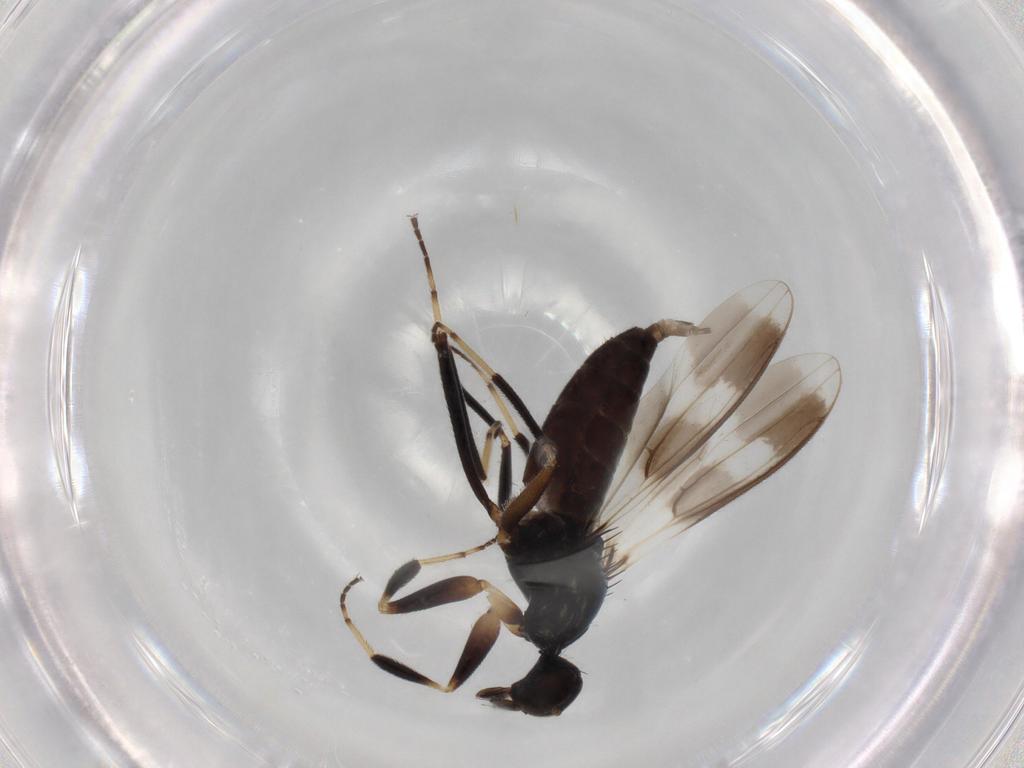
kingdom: Animalia
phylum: Arthropoda
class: Insecta
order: Diptera
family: Hybotidae
